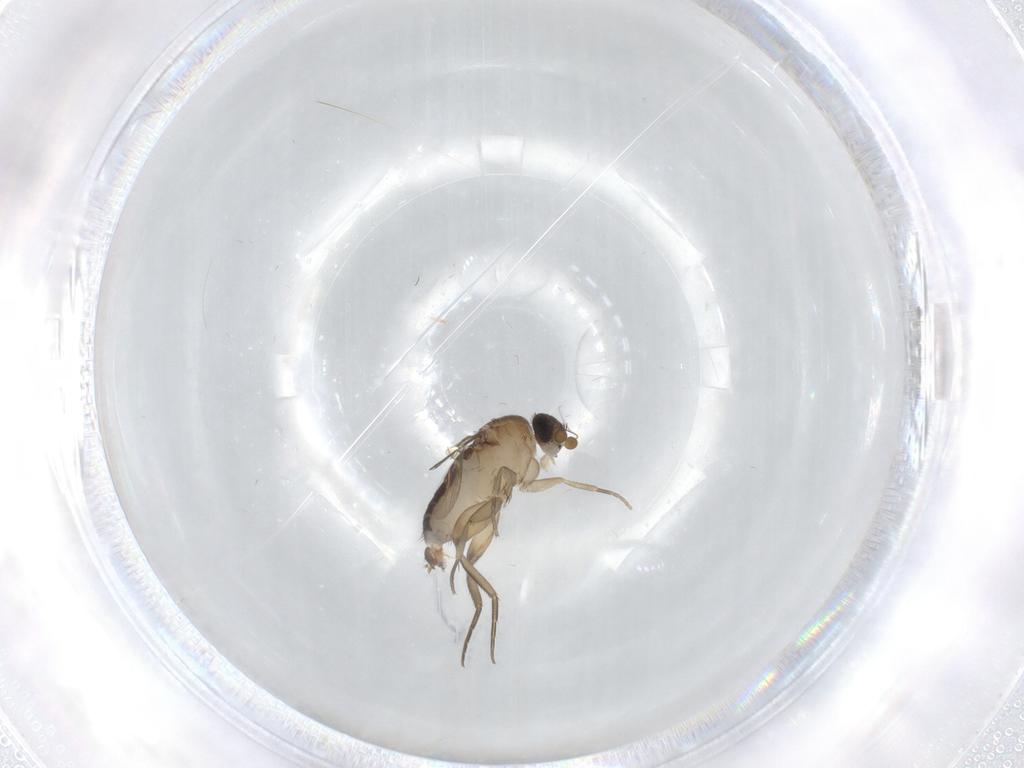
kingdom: Animalia
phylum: Arthropoda
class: Insecta
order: Diptera
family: Phoridae
